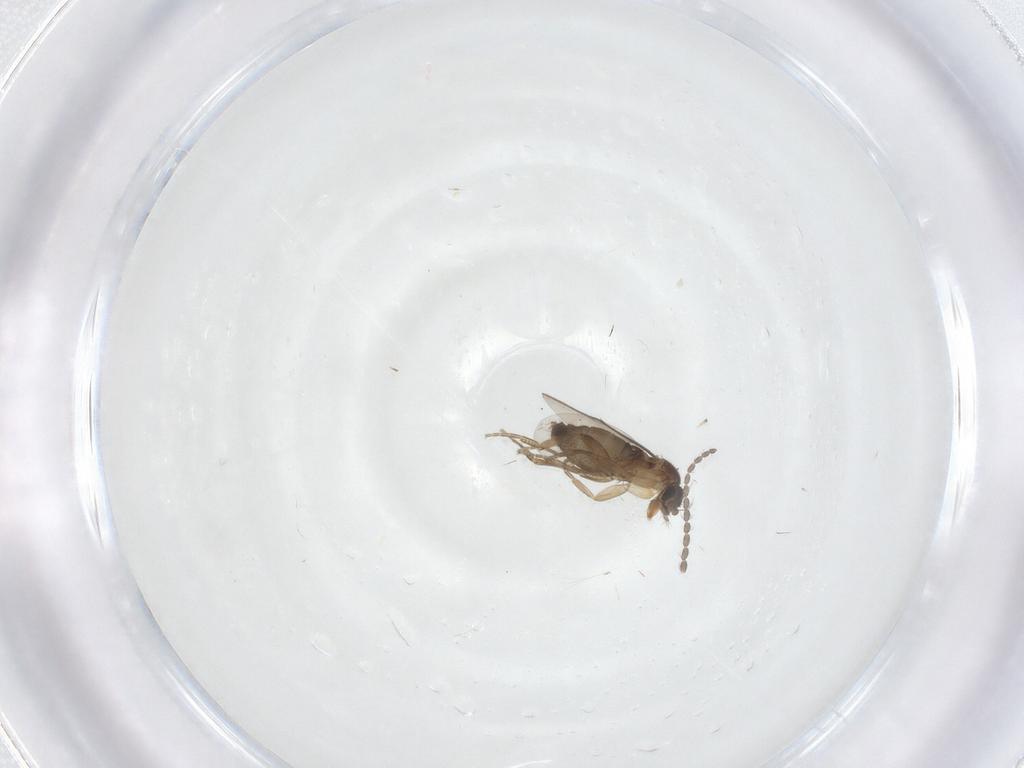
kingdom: Animalia
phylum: Arthropoda
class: Insecta
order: Diptera
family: Phoridae
